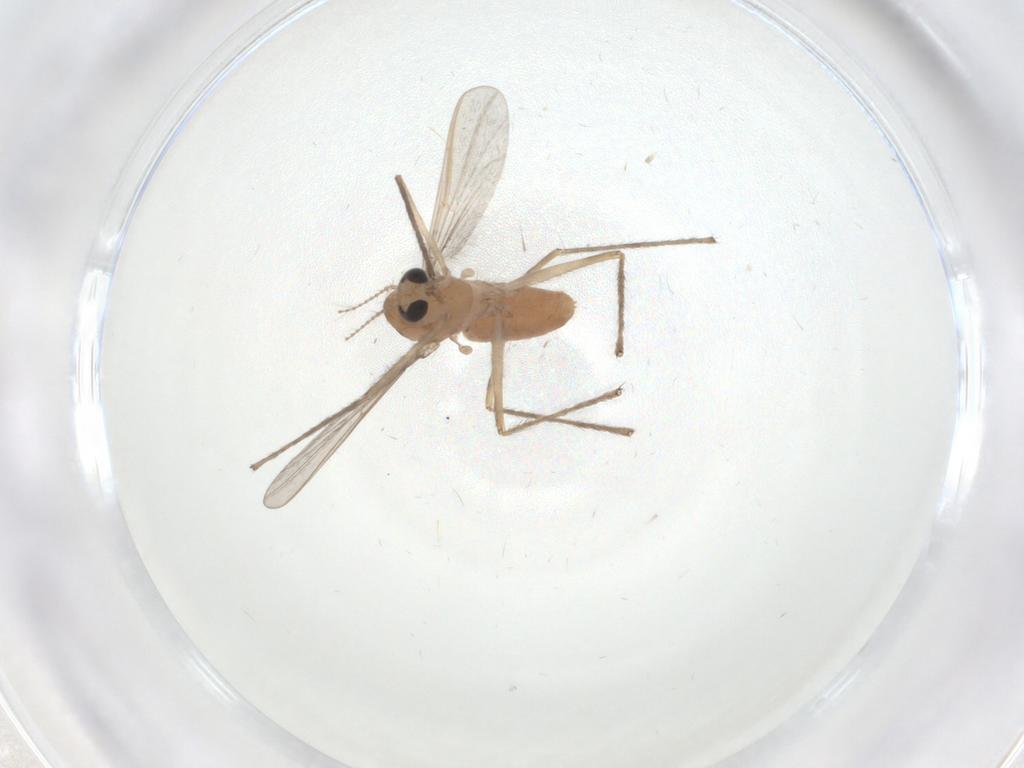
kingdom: Animalia
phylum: Arthropoda
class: Insecta
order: Diptera
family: Chironomidae
